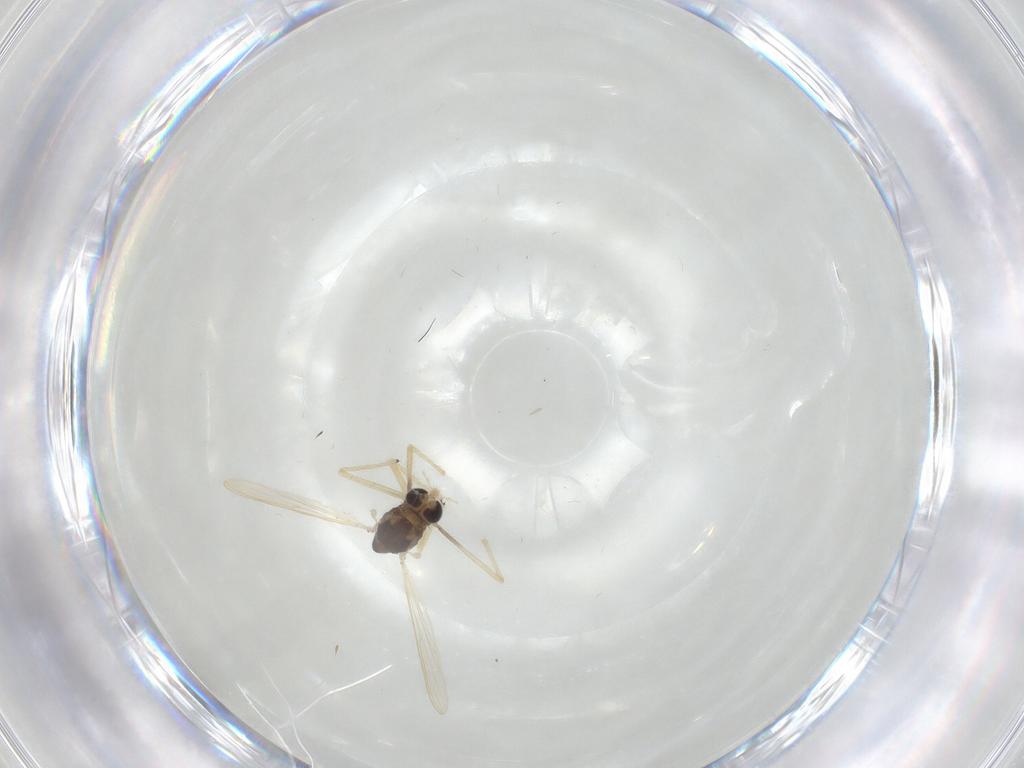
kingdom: Animalia
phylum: Arthropoda
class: Insecta
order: Diptera
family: Chironomidae
